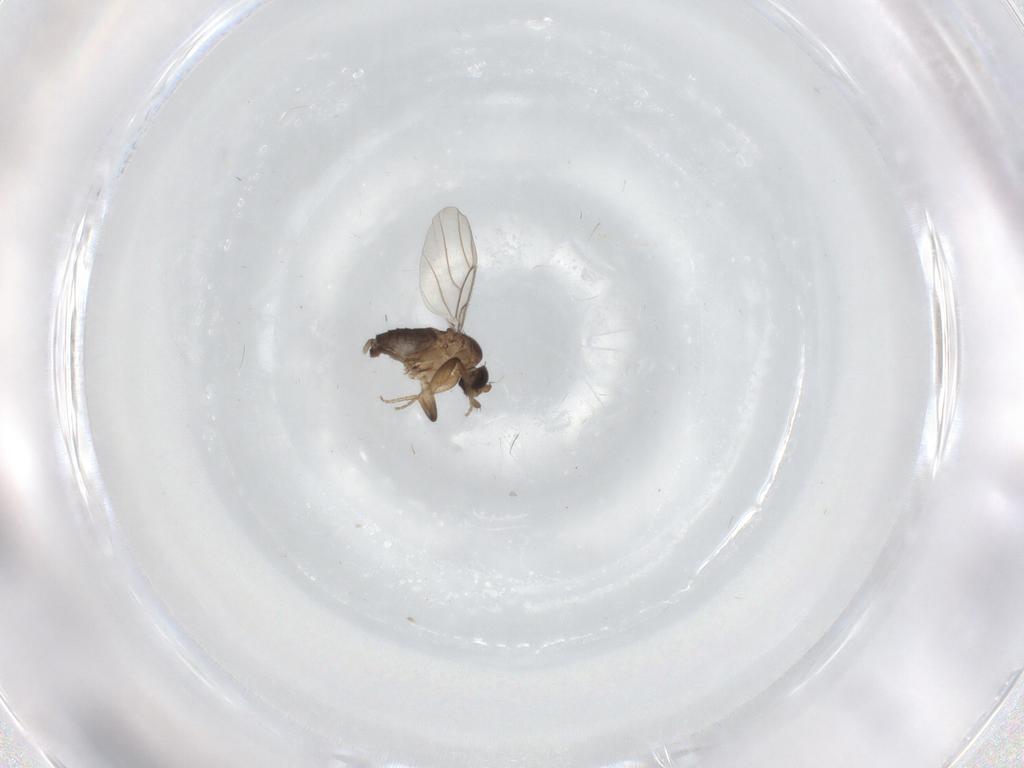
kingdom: Animalia
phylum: Arthropoda
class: Insecta
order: Diptera
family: Phoridae
